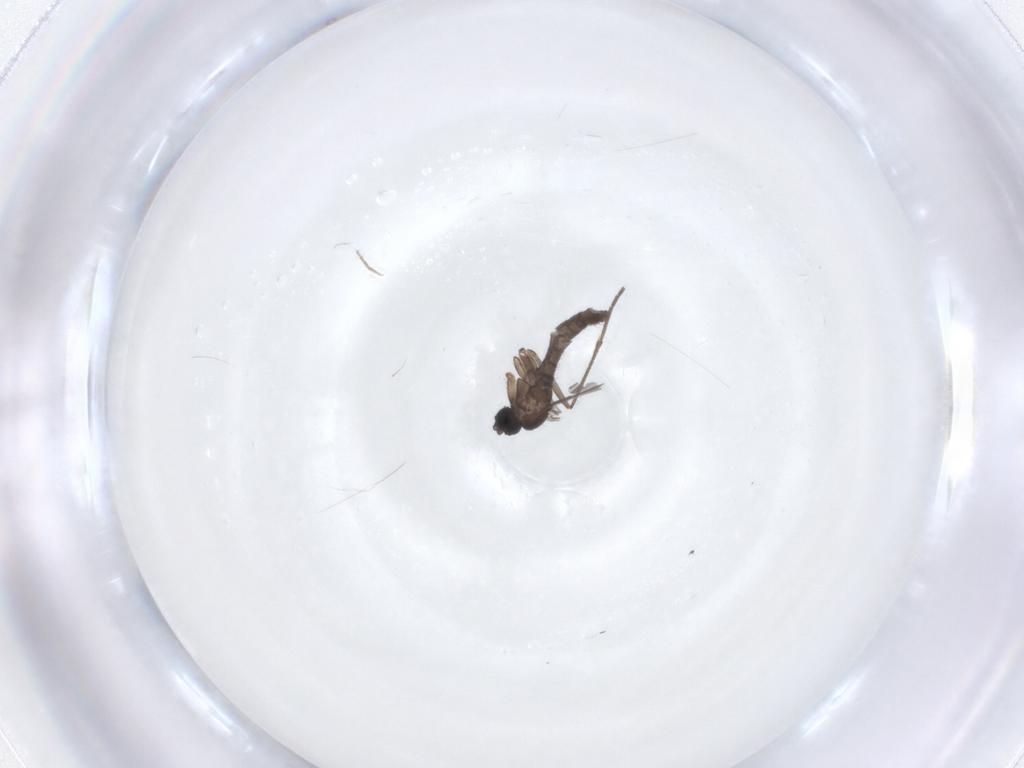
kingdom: Animalia
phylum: Arthropoda
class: Insecta
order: Diptera
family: Sciaridae
